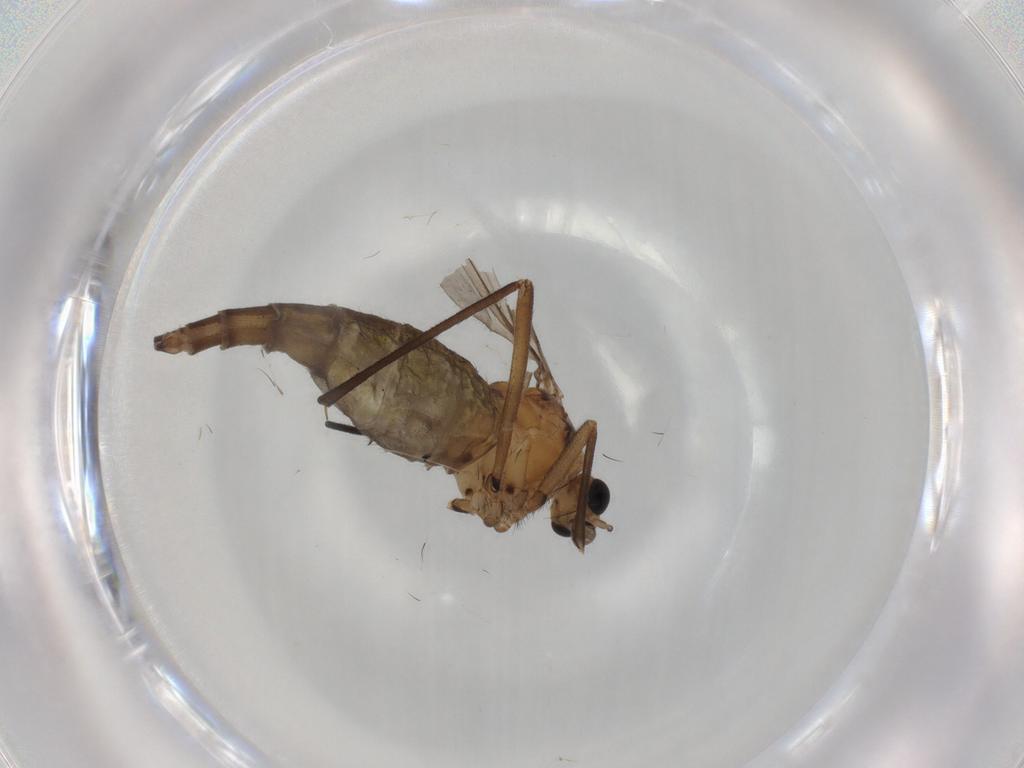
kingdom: Animalia
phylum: Arthropoda
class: Insecta
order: Diptera
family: Sciaridae
